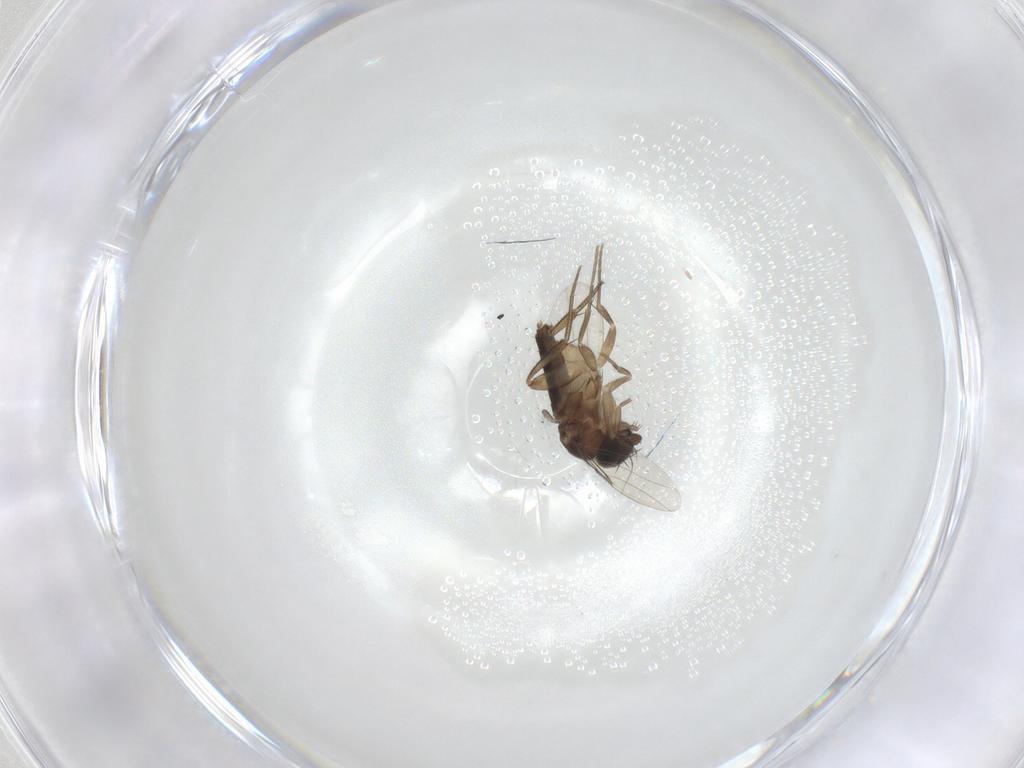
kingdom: Animalia
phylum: Arthropoda
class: Insecta
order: Diptera
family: Phoridae
